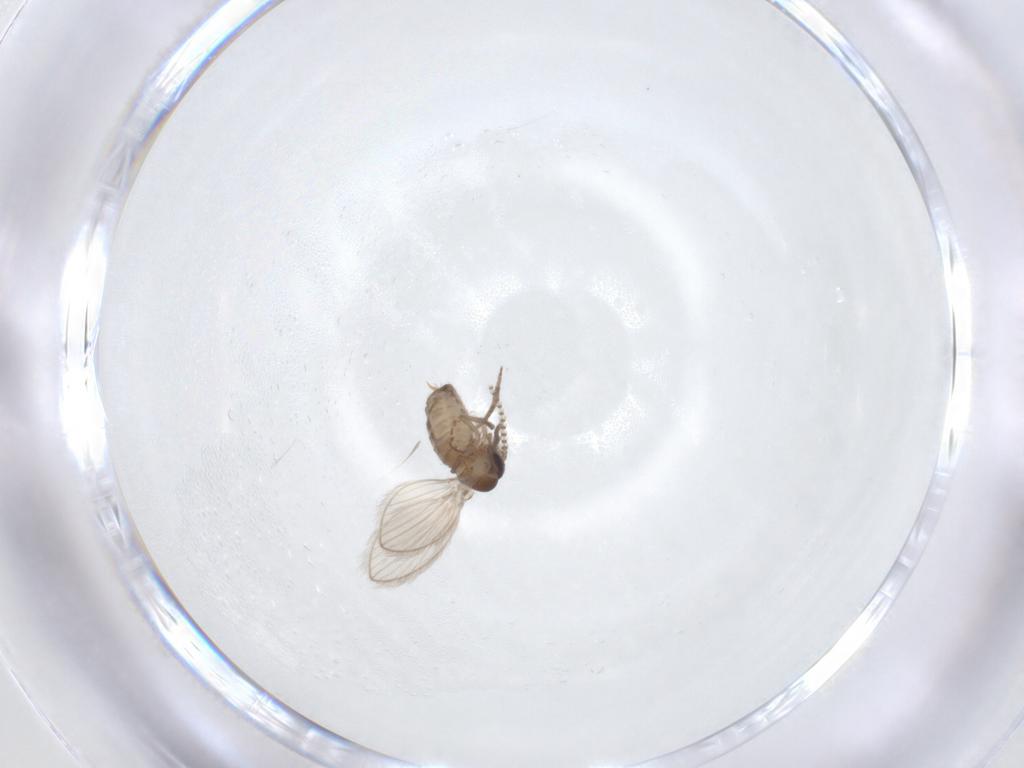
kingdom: Animalia
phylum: Arthropoda
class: Insecta
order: Diptera
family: Psychodidae
